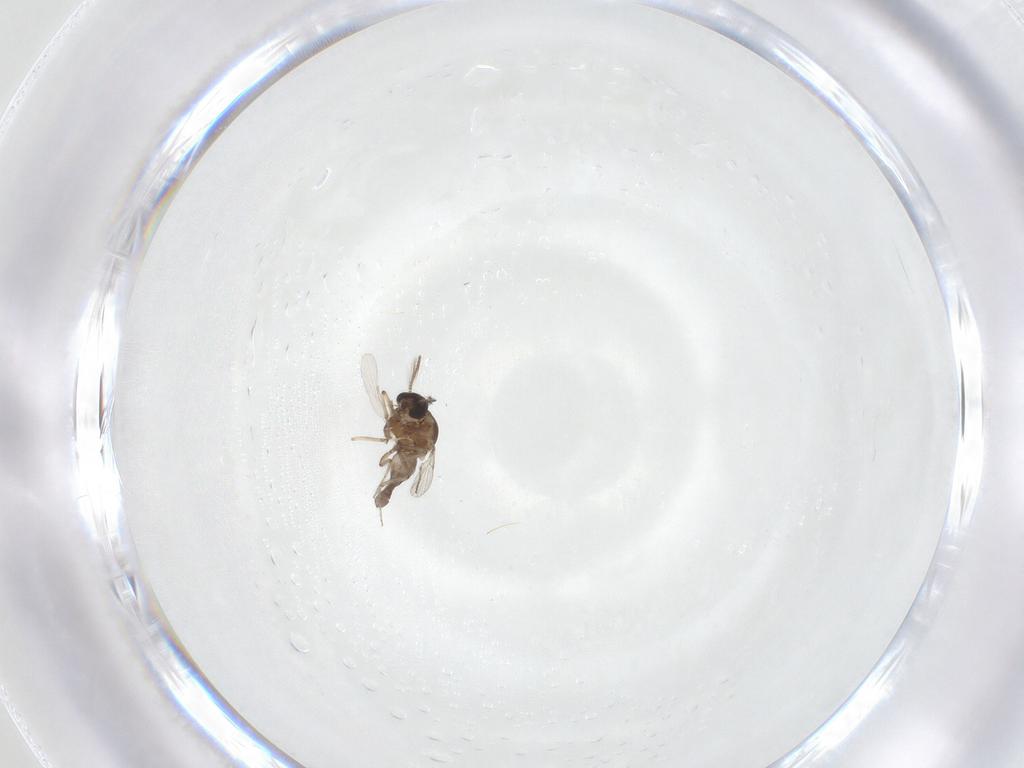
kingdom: Animalia
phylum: Arthropoda
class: Insecta
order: Diptera
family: Ceratopogonidae
